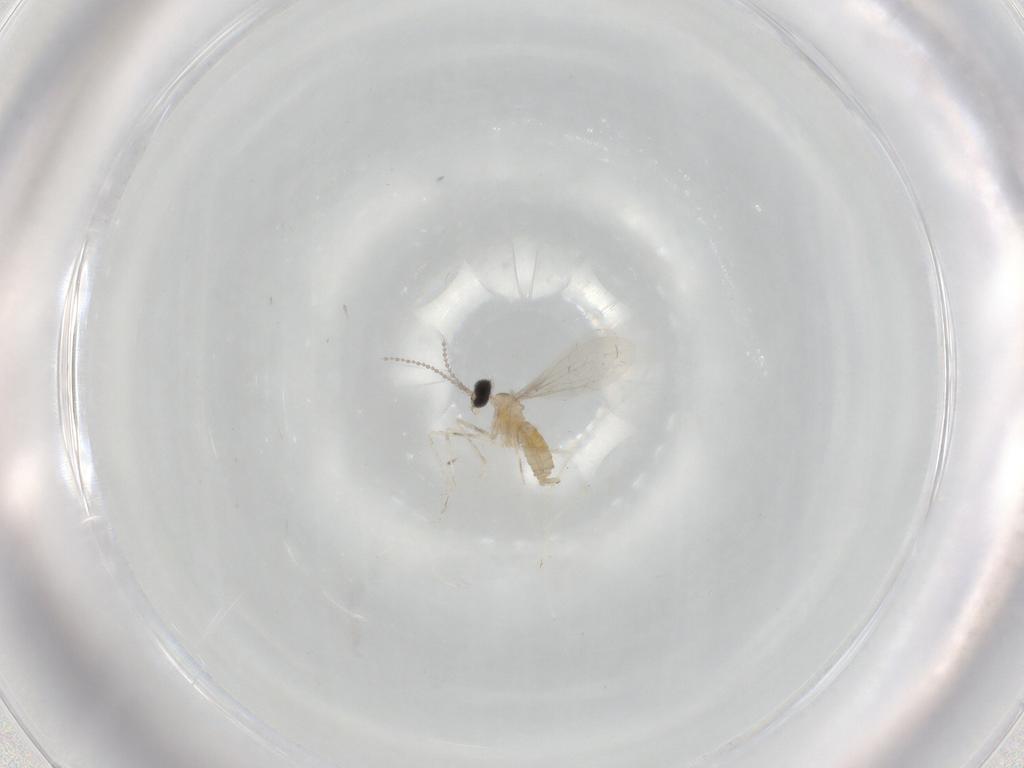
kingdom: Animalia
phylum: Arthropoda
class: Insecta
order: Diptera
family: Cecidomyiidae
